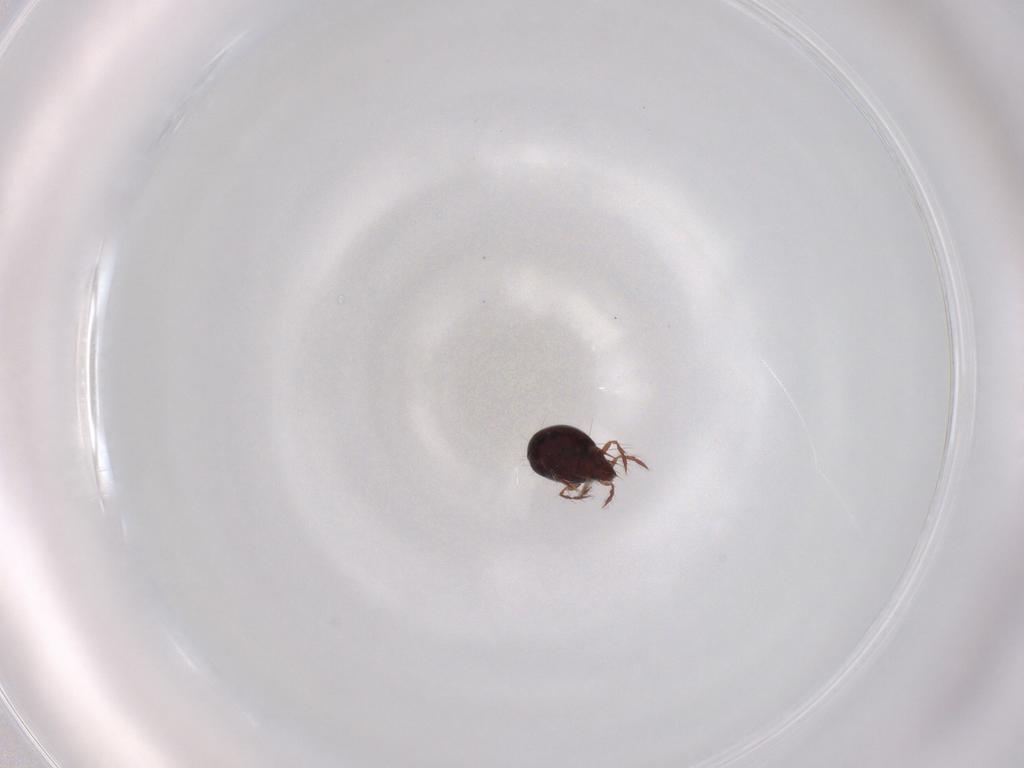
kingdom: Animalia
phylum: Arthropoda
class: Arachnida
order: Sarcoptiformes
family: Ceratoppiidae
